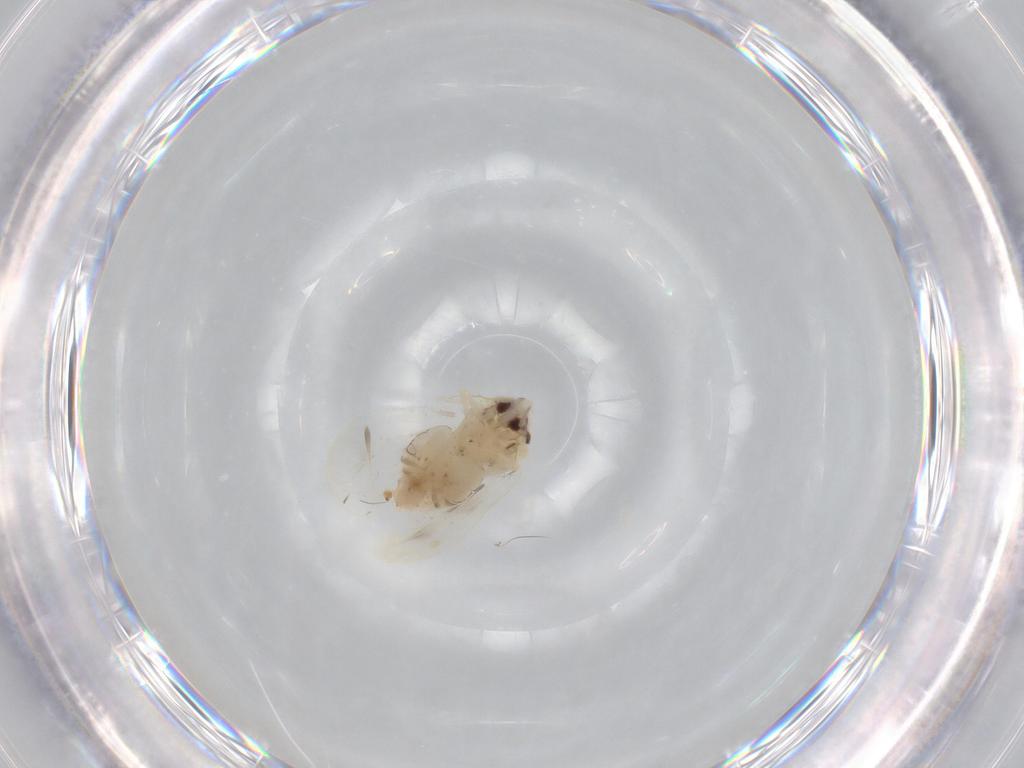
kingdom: Animalia
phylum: Arthropoda
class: Insecta
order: Hemiptera
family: Aleyrodidae
